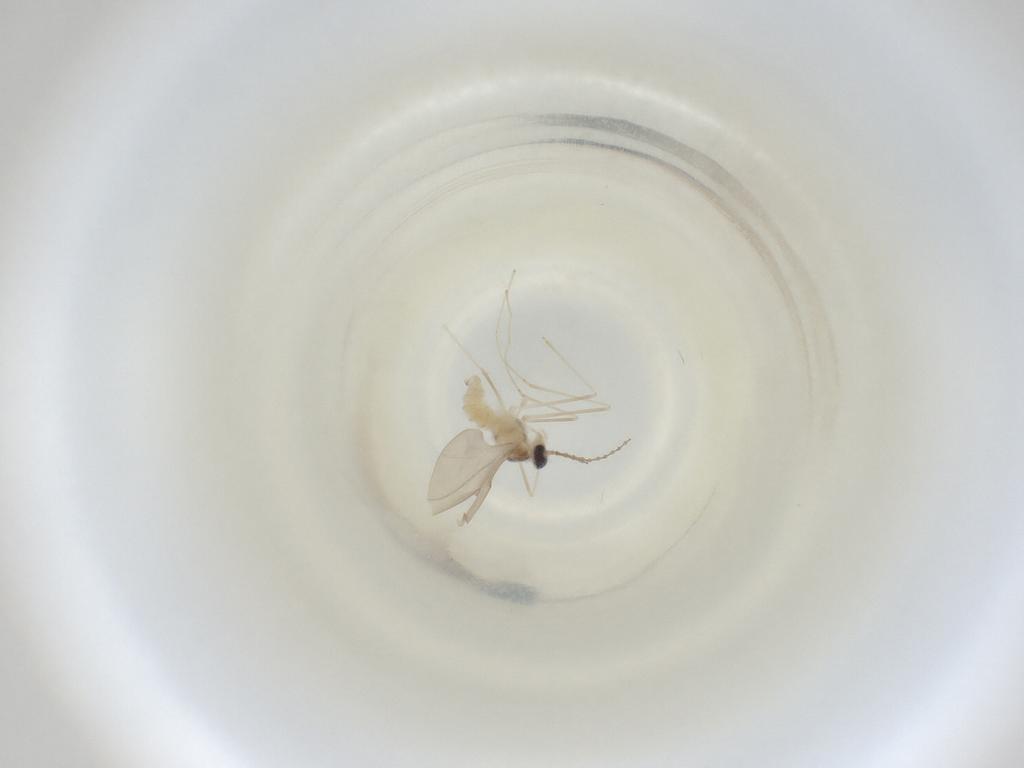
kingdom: Animalia
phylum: Arthropoda
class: Insecta
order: Diptera
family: Cecidomyiidae
